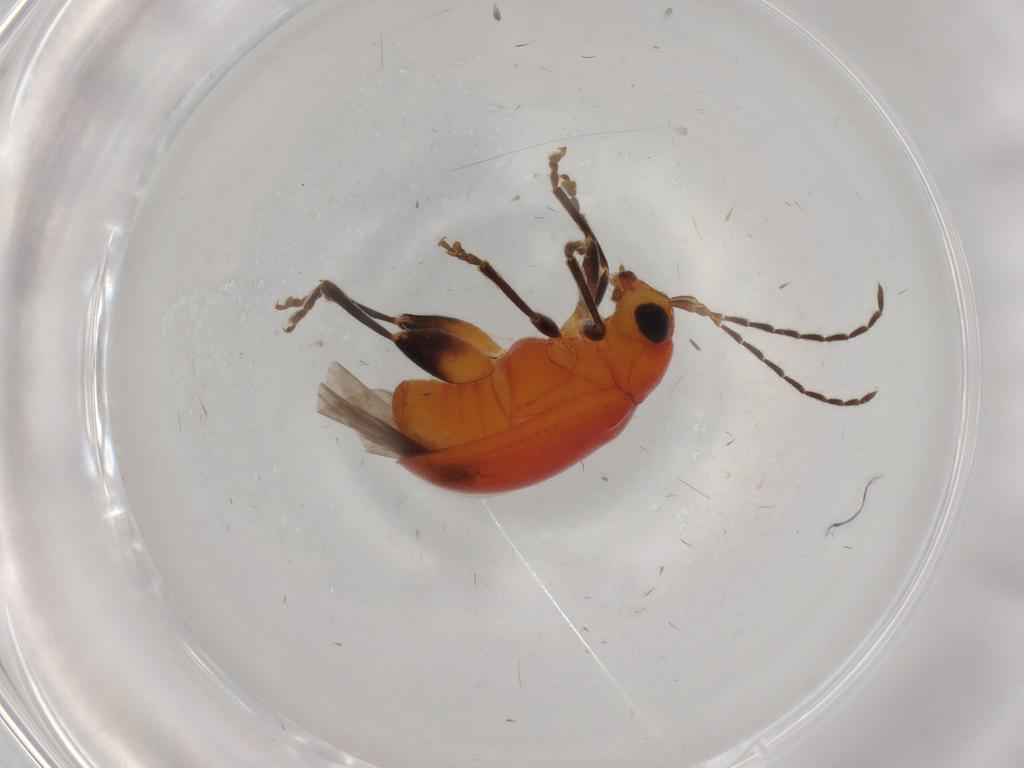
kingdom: Animalia
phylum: Arthropoda
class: Insecta
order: Coleoptera
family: Chrysomelidae
